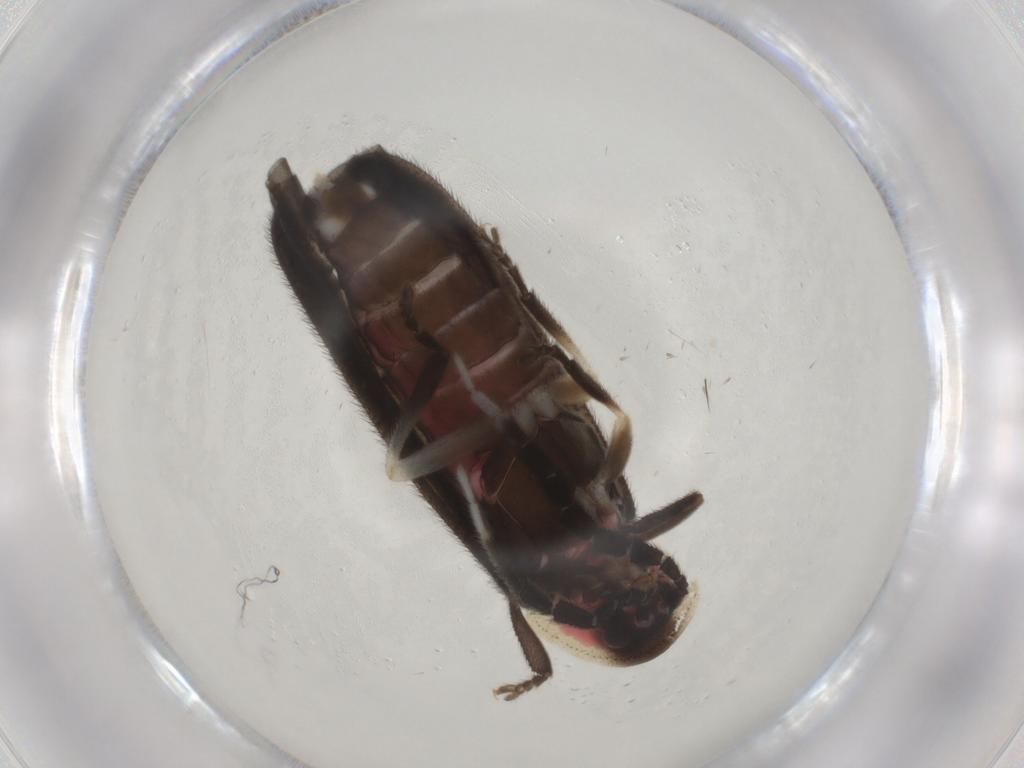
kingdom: Animalia
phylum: Arthropoda
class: Insecta
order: Coleoptera
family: Lampyridae
